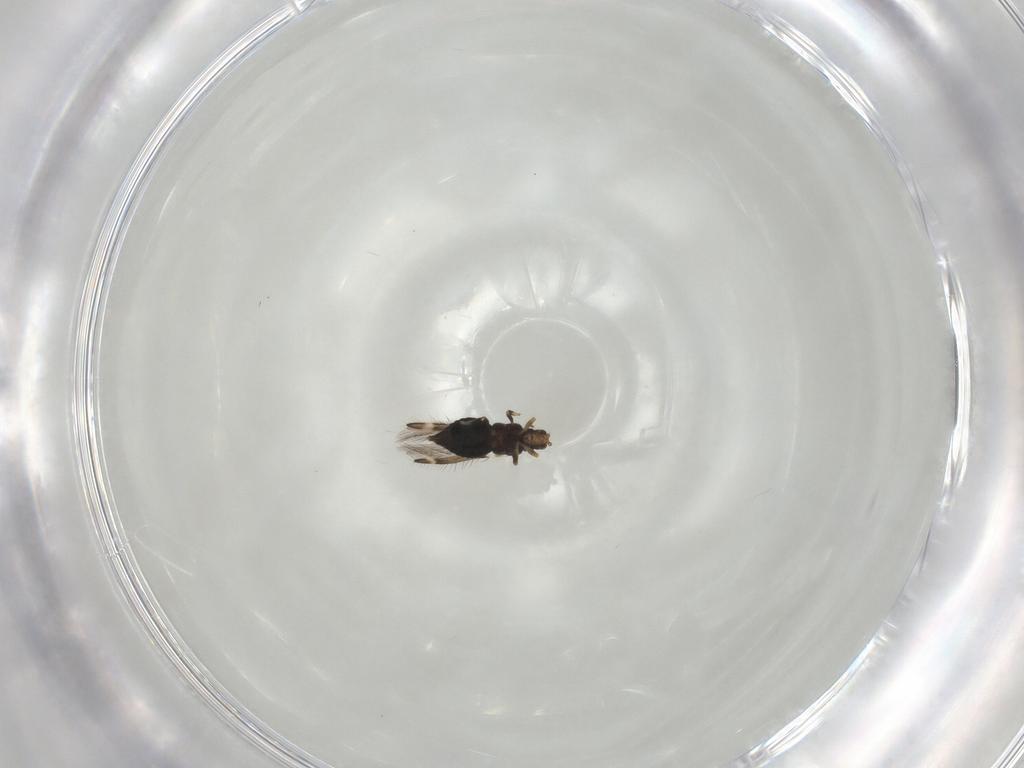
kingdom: Animalia
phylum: Arthropoda
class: Insecta
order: Thysanoptera
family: Thripidae
